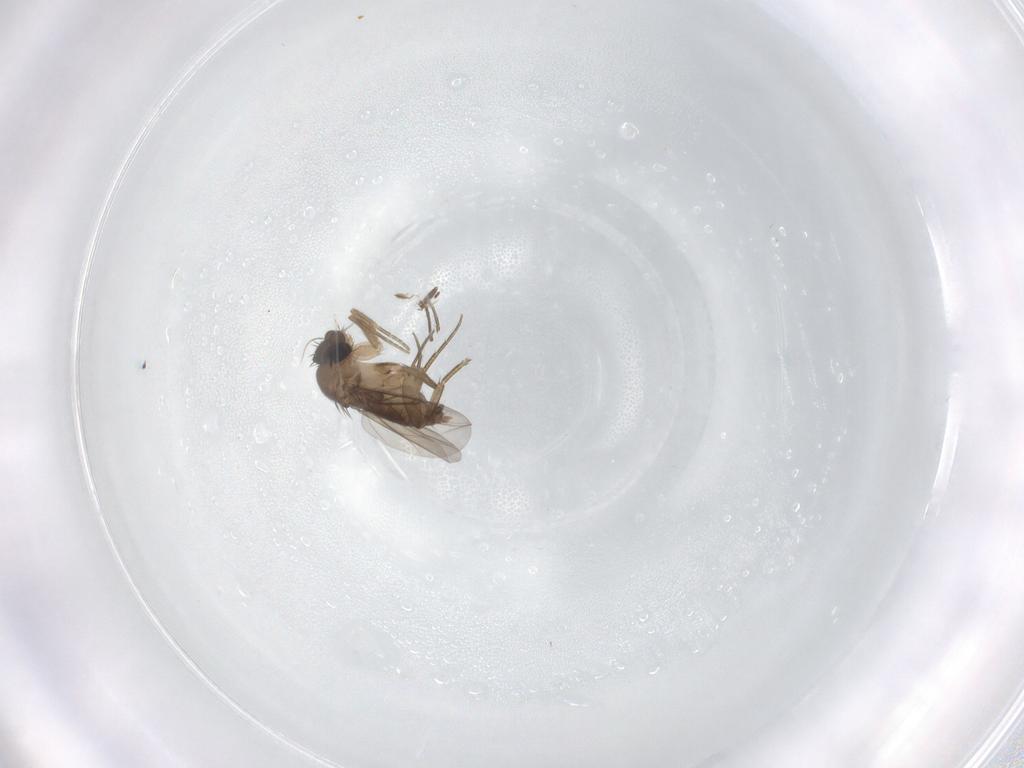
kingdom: Animalia
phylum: Arthropoda
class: Insecta
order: Diptera
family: Phoridae
